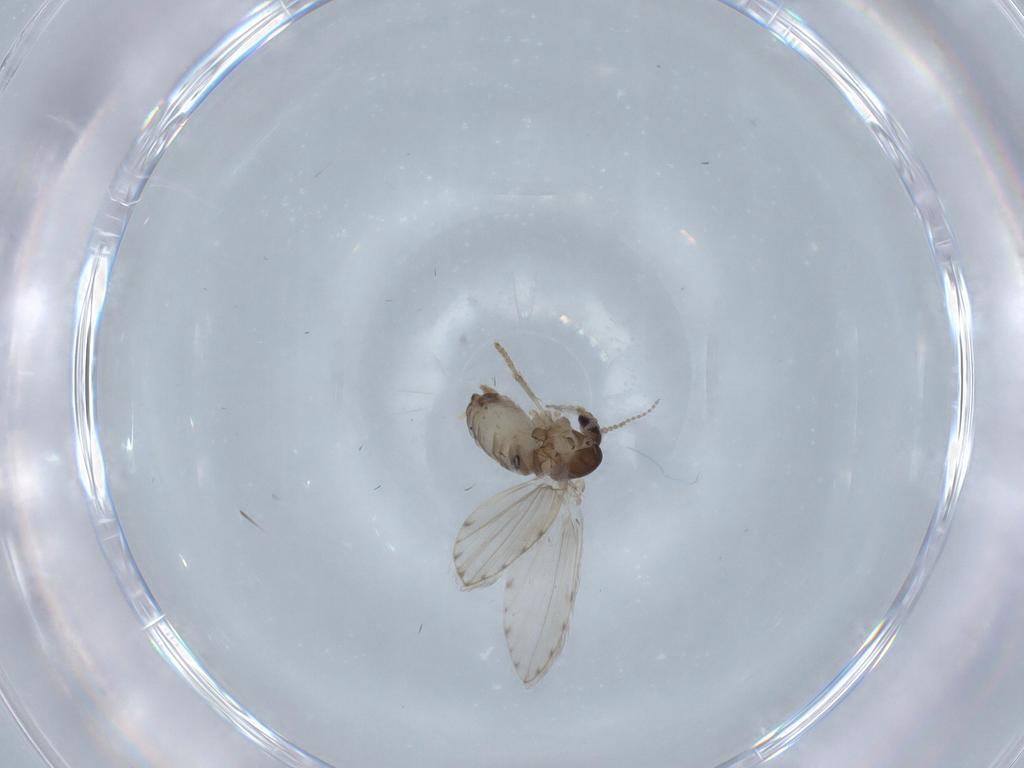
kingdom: Animalia
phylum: Arthropoda
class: Insecta
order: Diptera
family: Psychodidae
